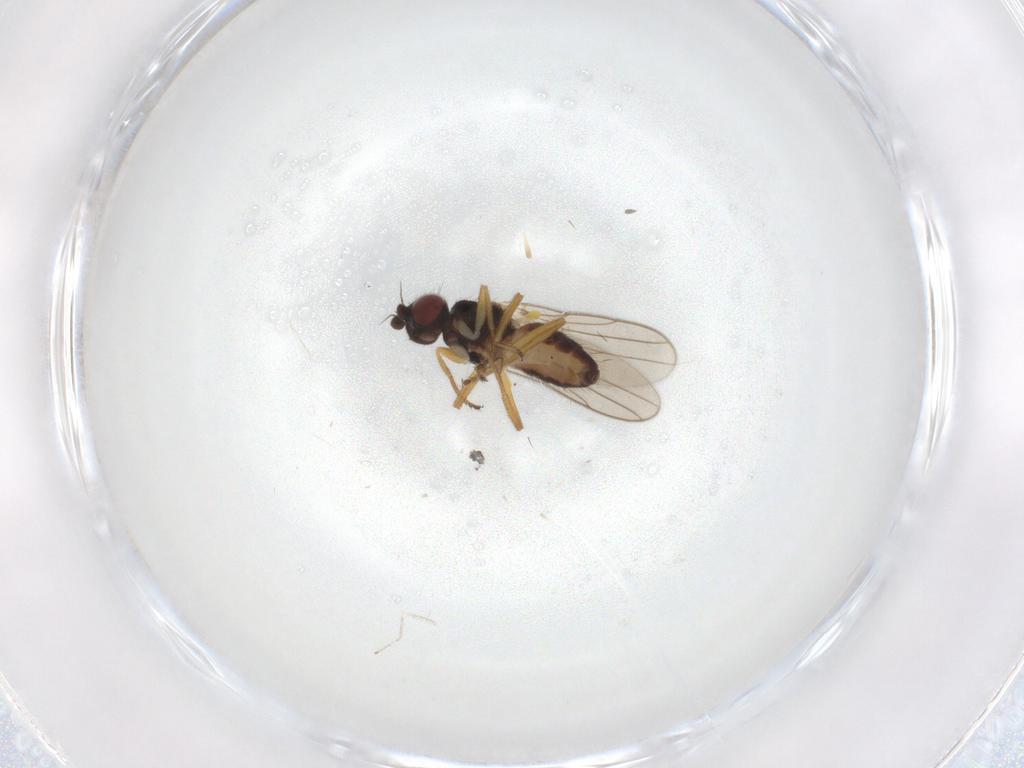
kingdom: Animalia
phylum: Arthropoda
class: Insecta
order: Diptera
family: Chloropidae
